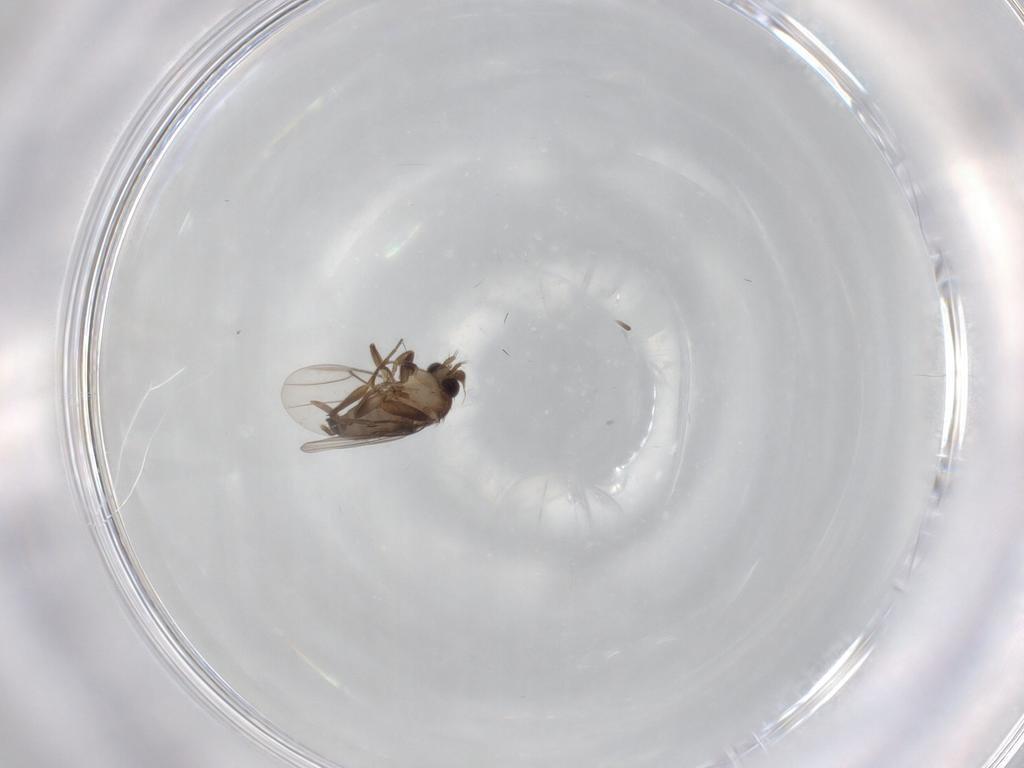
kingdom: Animalia
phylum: Arthropoda
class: Insecta
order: Diptera
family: Phoridae
